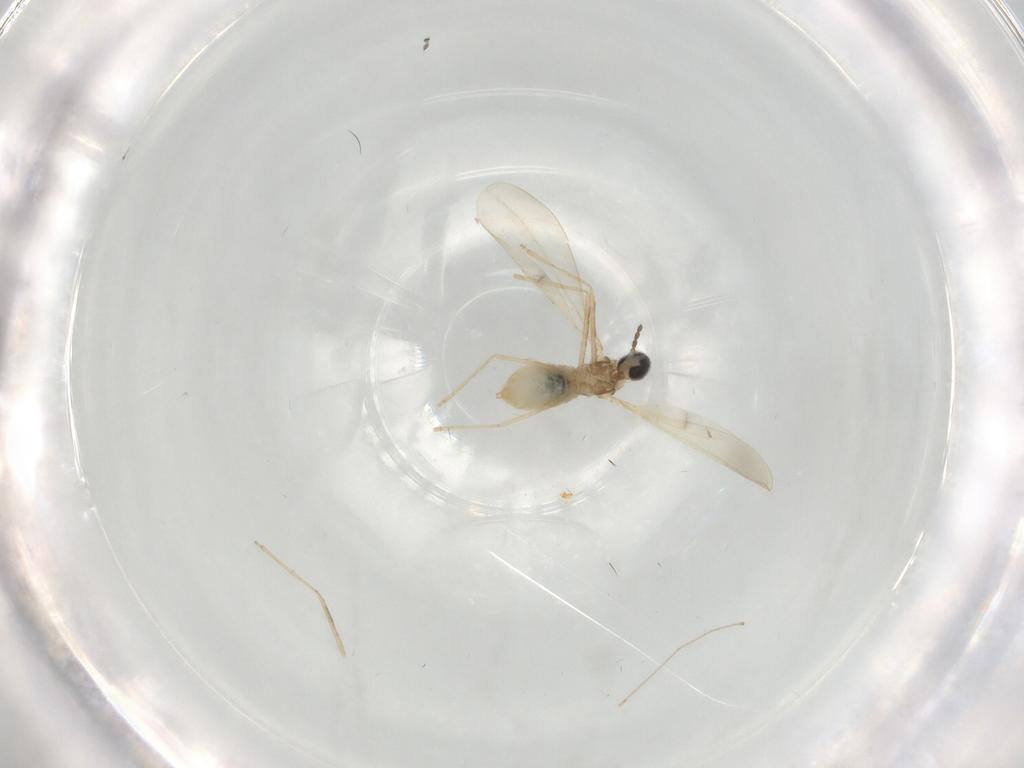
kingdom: Animalia
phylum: Arthropoda
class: Insecta
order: Diptera
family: Cecidomyiidae
